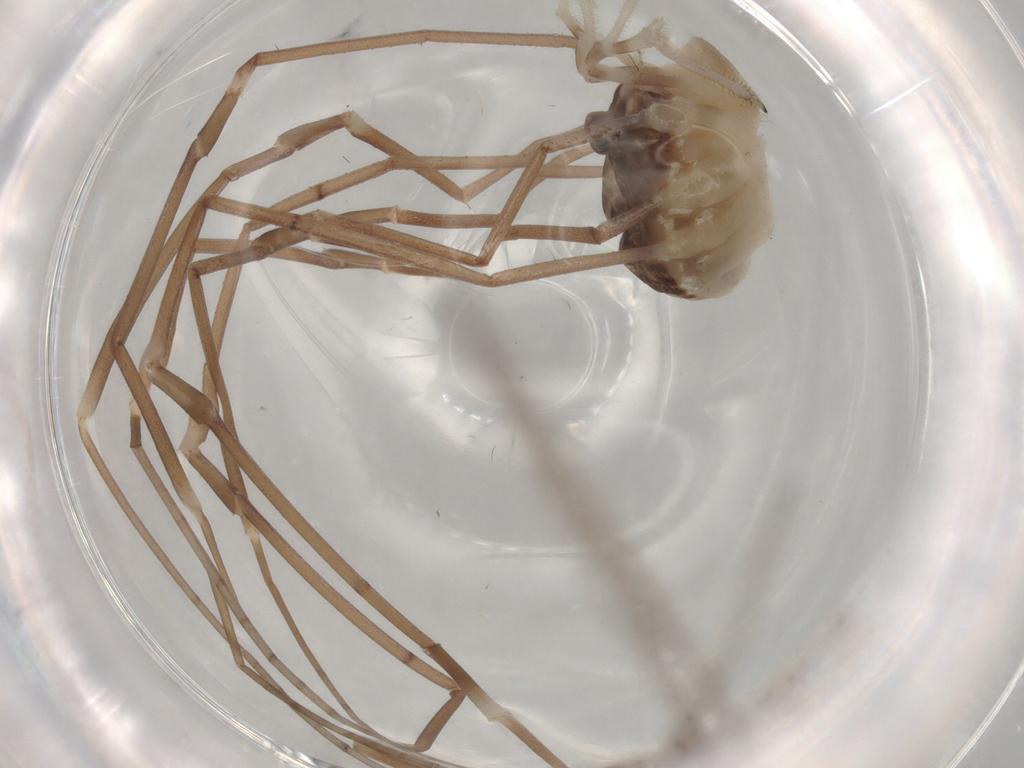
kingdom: Animalia
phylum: Arthropoda
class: Arachnida
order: Opiliones
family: Sclerosomatidae
